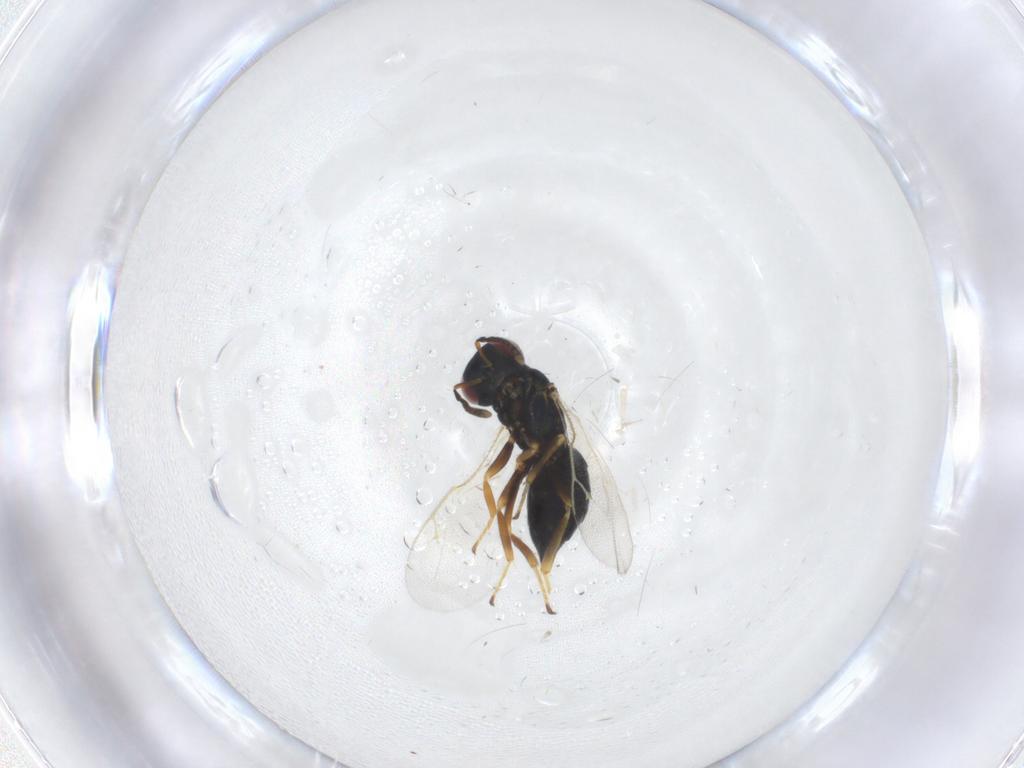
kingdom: Animalia
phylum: Arthropoda
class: Insecta
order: Hymenoptera
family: Pteromalidae
